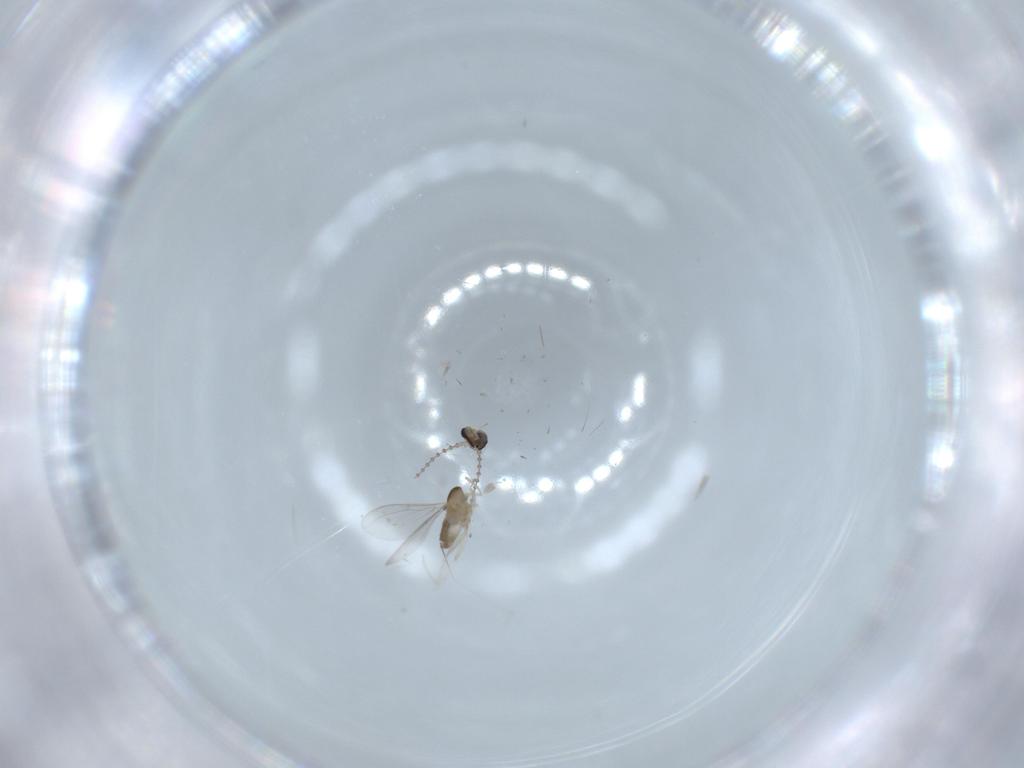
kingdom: Animalia
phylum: Arthropoda
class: Insecta
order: Diptera
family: Cecidomyiidae
